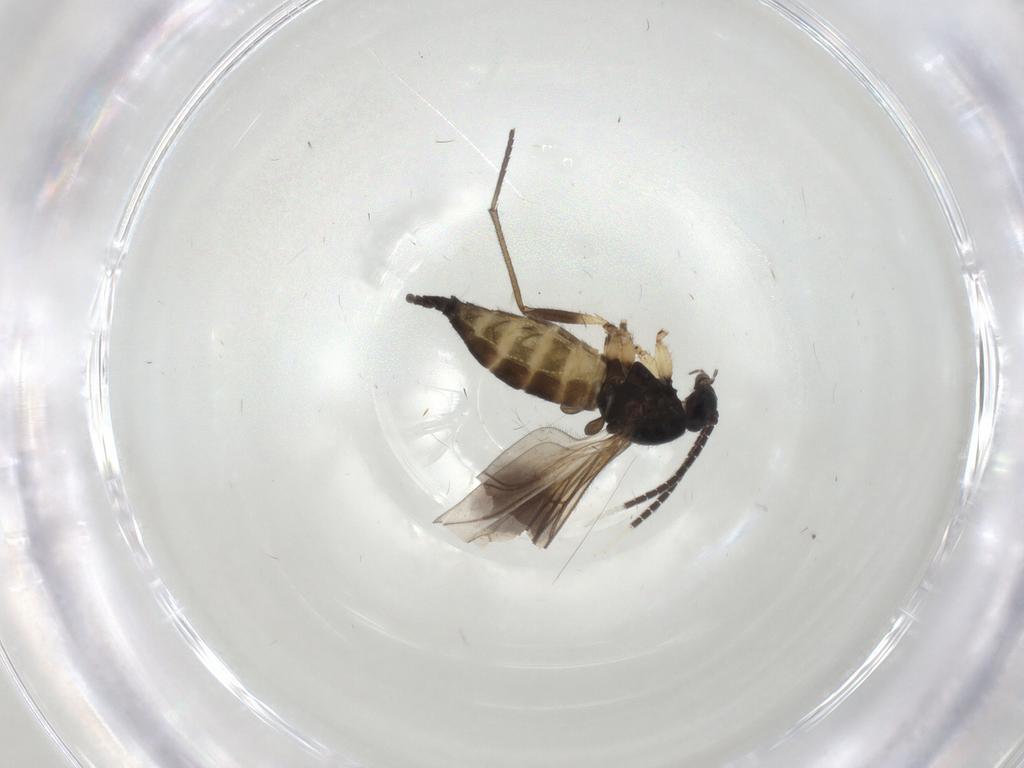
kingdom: Animalia
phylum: Arthropoda
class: Insecta
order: Diptera
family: Sciaridae
